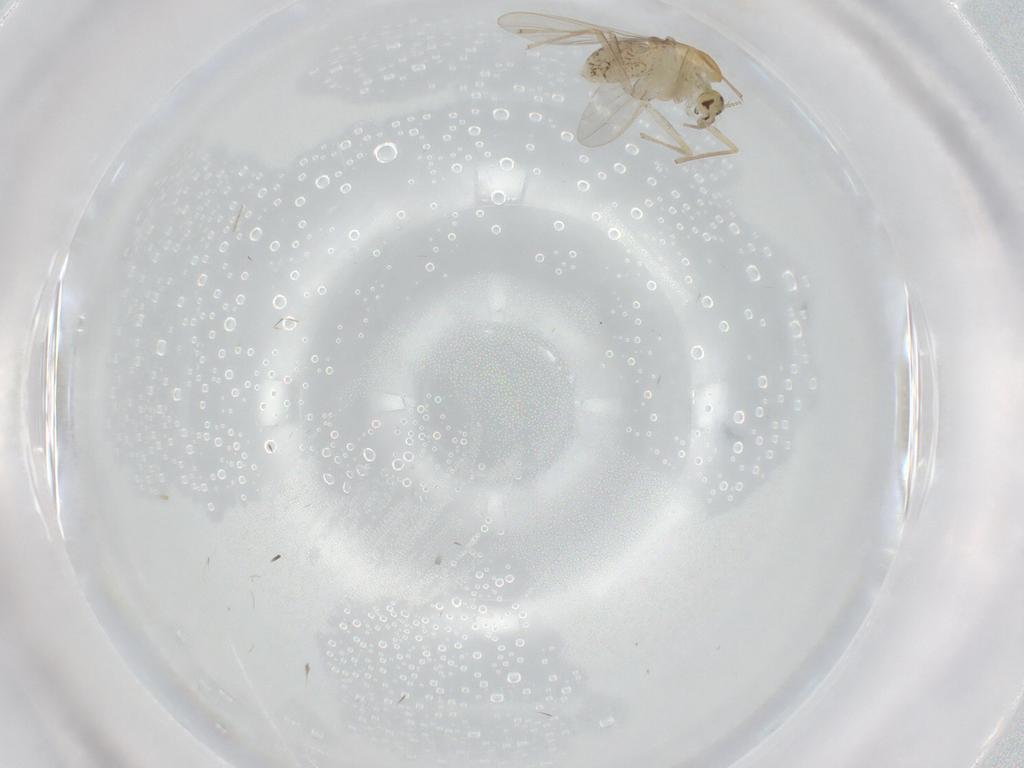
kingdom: Animalia
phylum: Arthropoda
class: Insecta
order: Diptera
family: Chironomidae
